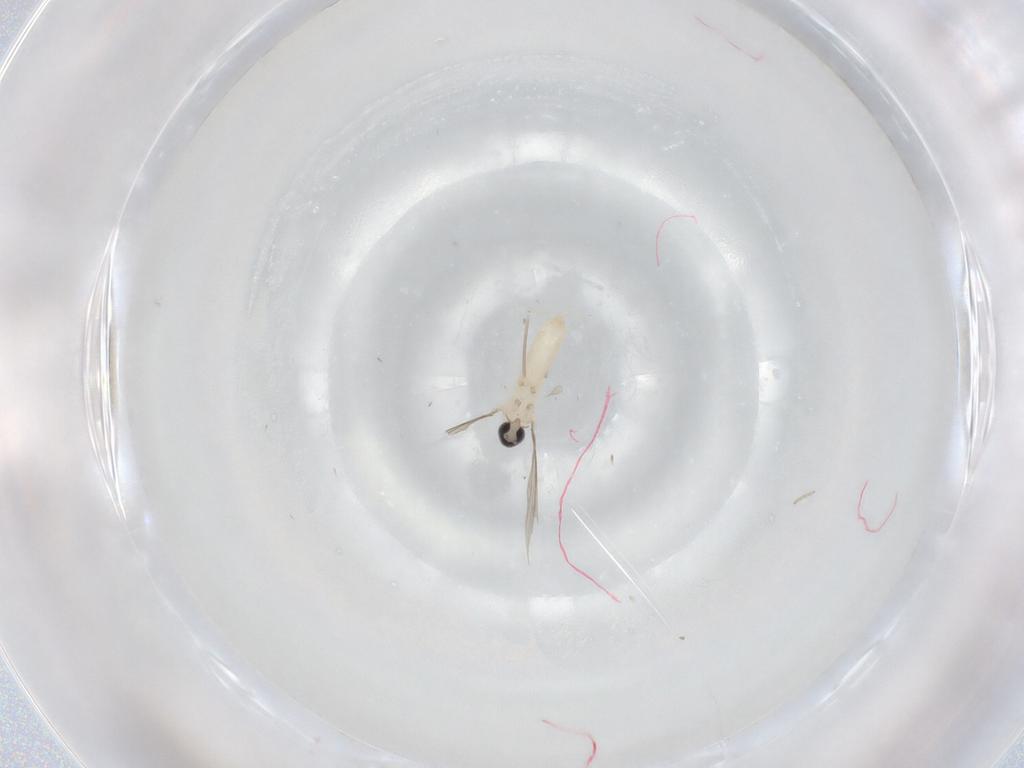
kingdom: Animalia
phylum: Arthropoda
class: Insecta
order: Diptera
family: Cecidomyiidae
